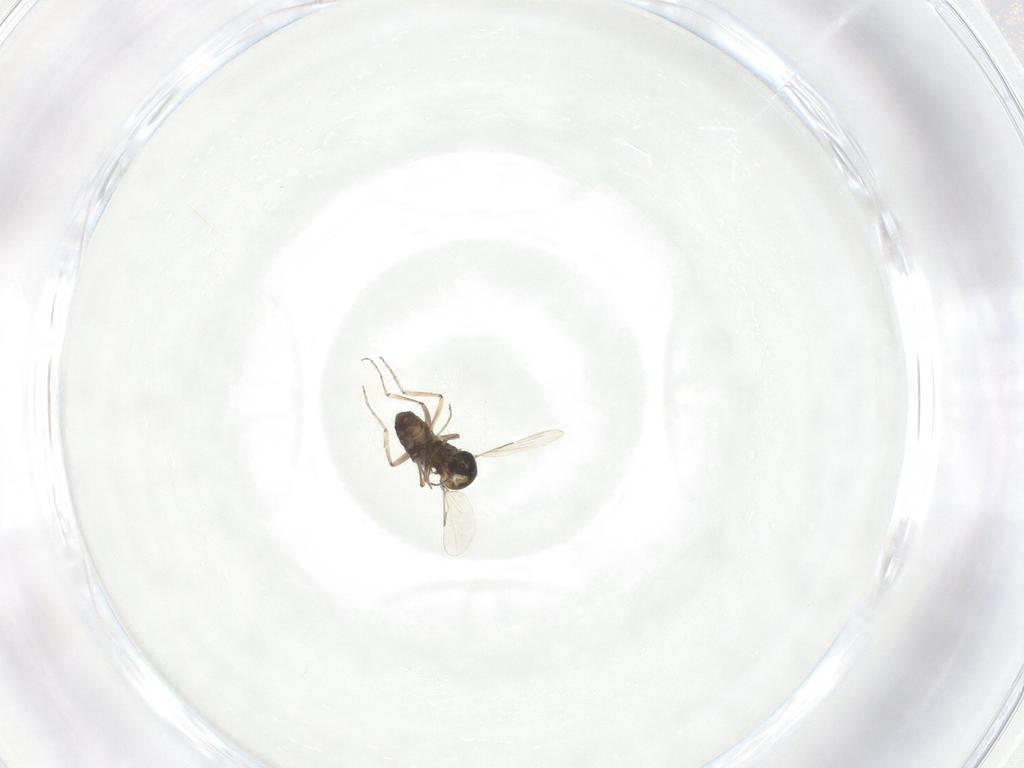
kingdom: Animalia
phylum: Arthropoda
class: Insecta
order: Diptera
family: Ceratopogonidae
